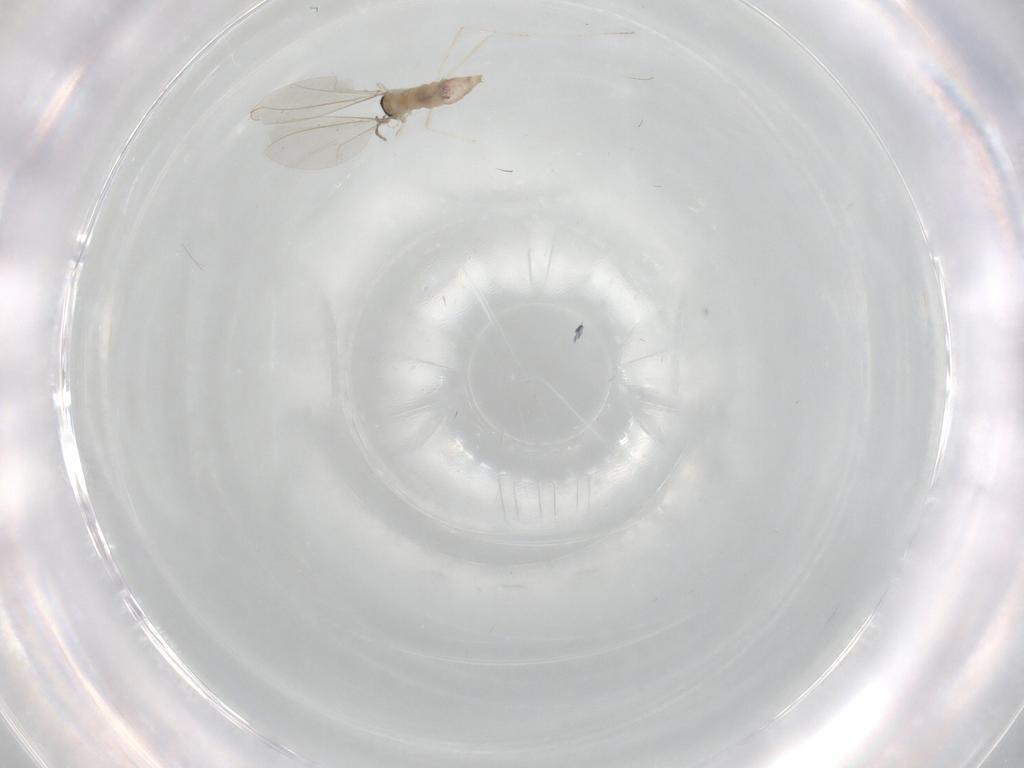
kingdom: Animalia
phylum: Arthropoda
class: Insecta
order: Diptera
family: Cecidomyiidae
